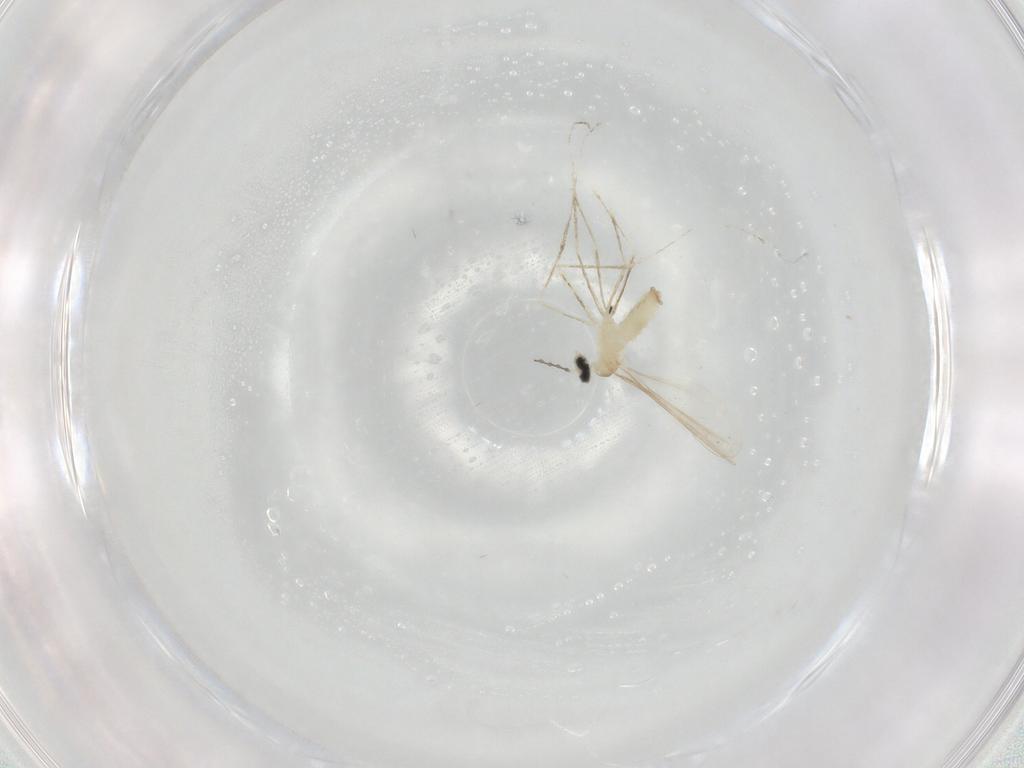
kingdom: Animalia
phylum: Arthropoda
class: Insecta
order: Diptera
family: Cecidomyiidae
